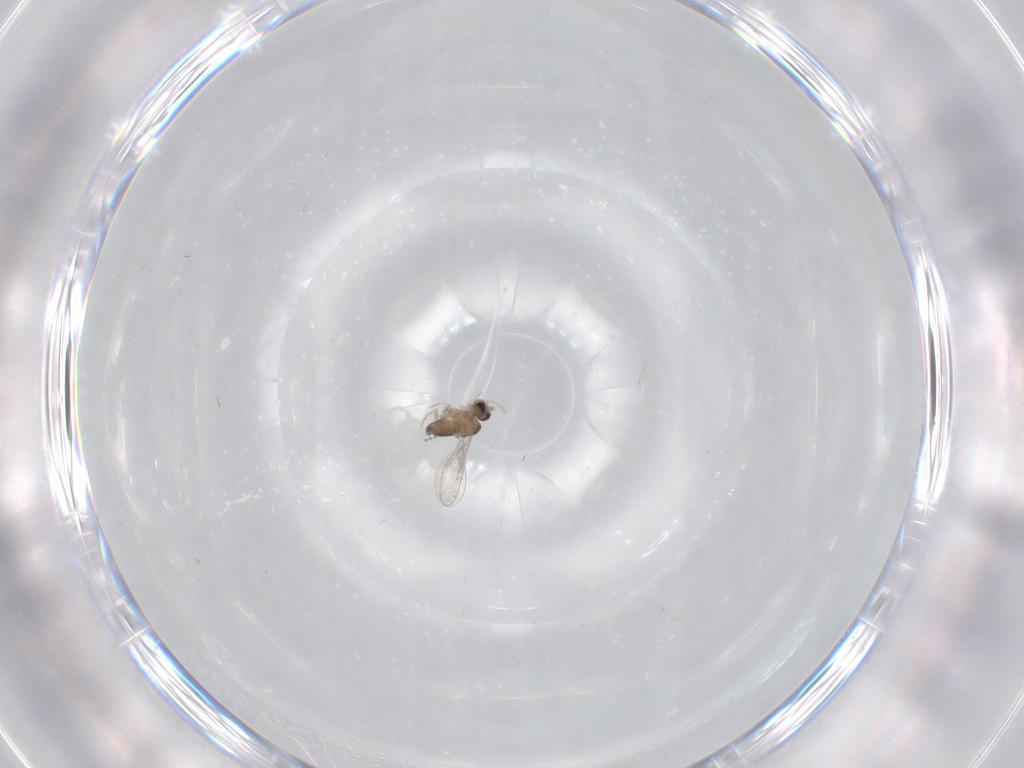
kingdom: Animalia
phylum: Arthropoda
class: Insecta
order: Diptera
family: Cecidomyiidae
